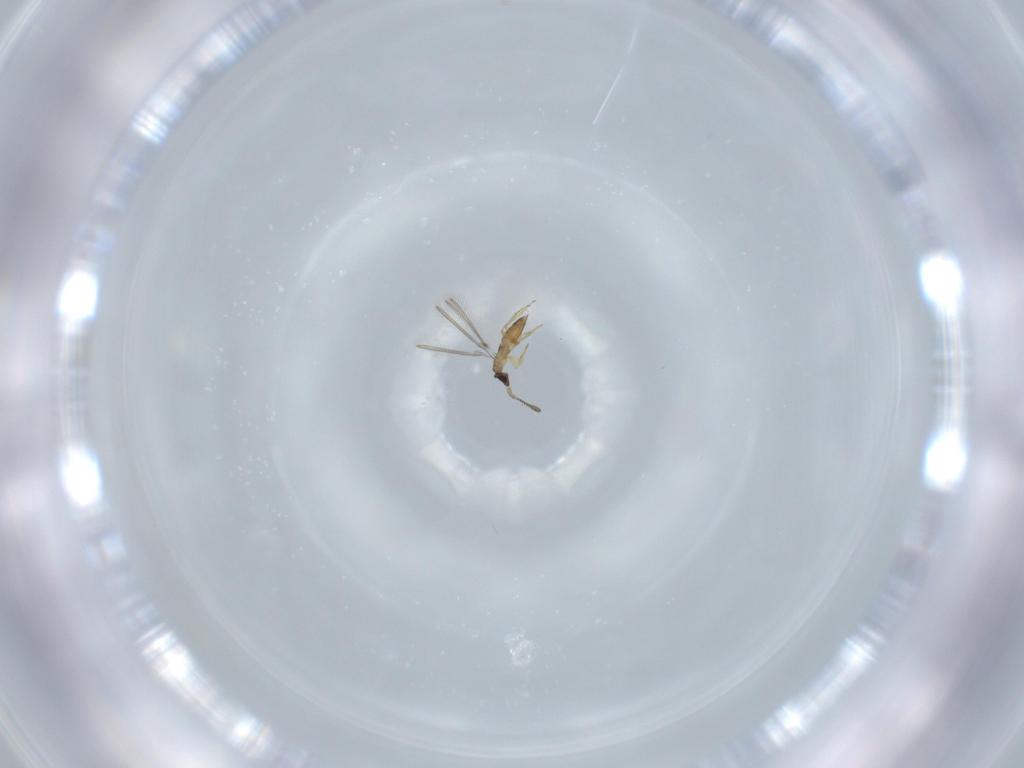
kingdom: Animalia
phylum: Arthropoda
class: Insecta
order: Hymenoptera
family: Mymaridae
